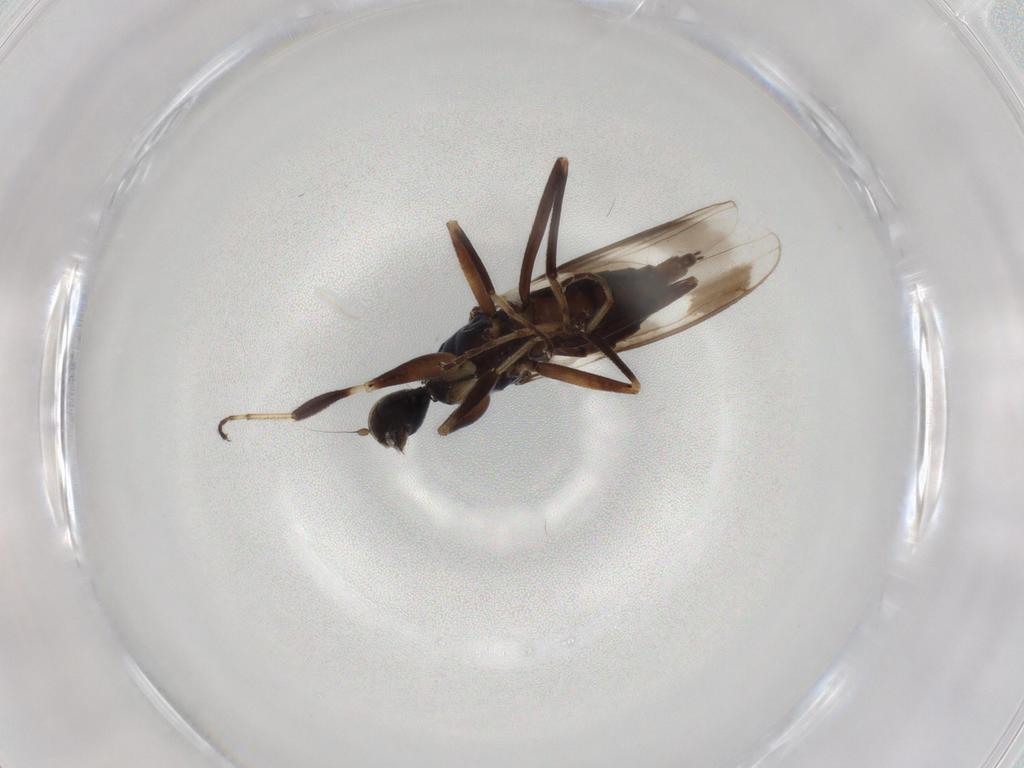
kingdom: Animalia
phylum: Arthropoda
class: Insecta
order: Diptera
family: Hybotidae
